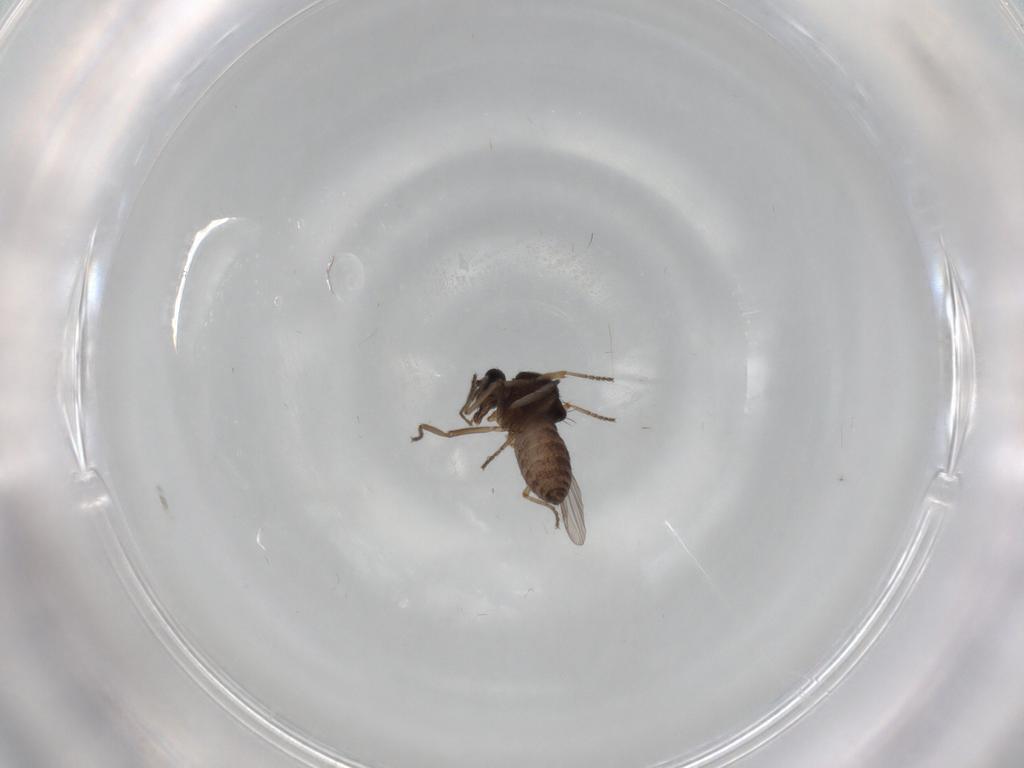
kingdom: Animalia
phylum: Arthropoda
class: Insecta
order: Diptera
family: Ceratopogonidae
